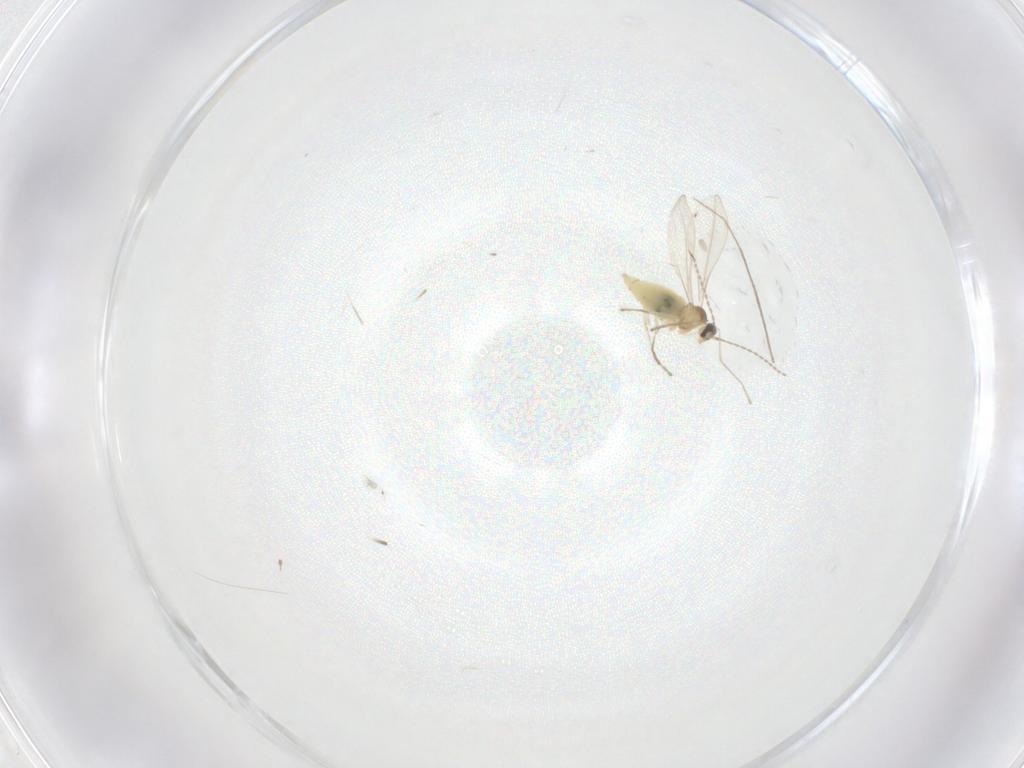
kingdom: Animalia
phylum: Arthropoda
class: Insecta
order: Diptera
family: Chironomidae
